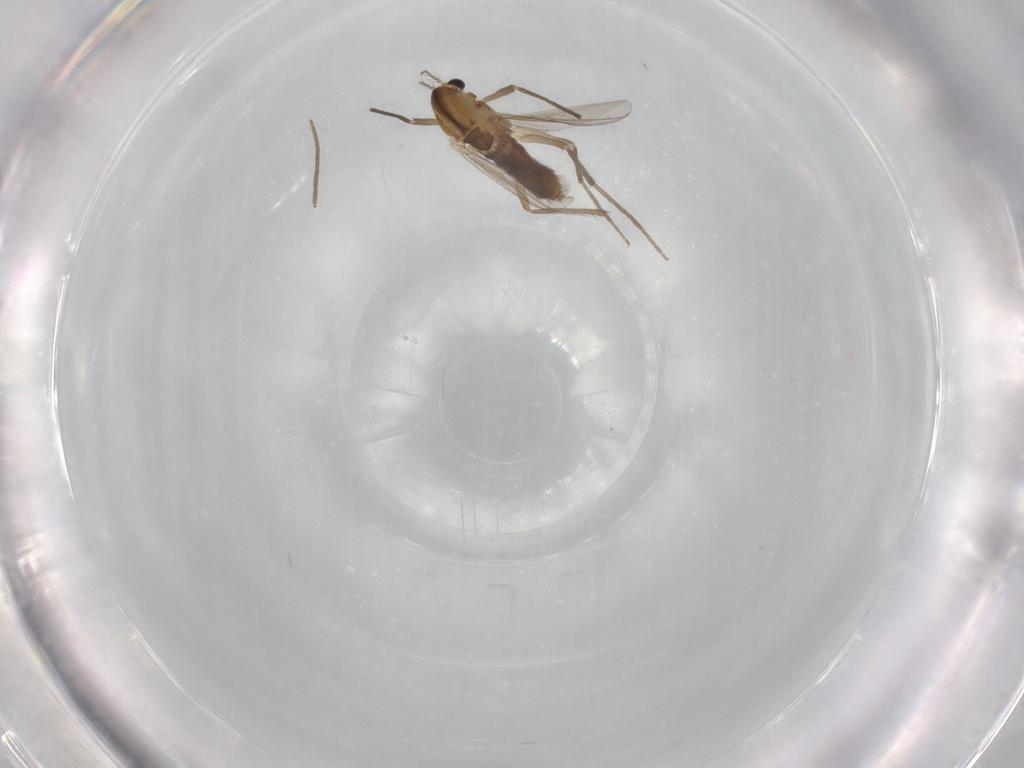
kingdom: Animalia
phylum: Arthropoda
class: Insecta
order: Diptera
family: Chironomidae
